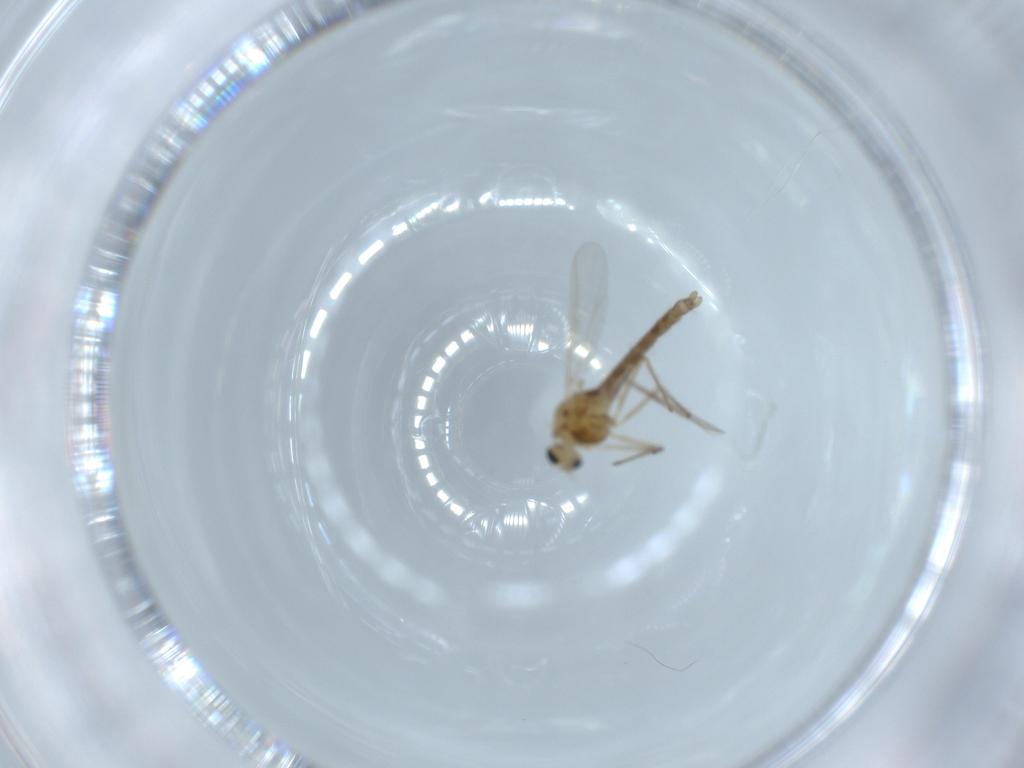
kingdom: Animalia
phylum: Arthropoda
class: Insecta
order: Diptera
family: Chironomidae
